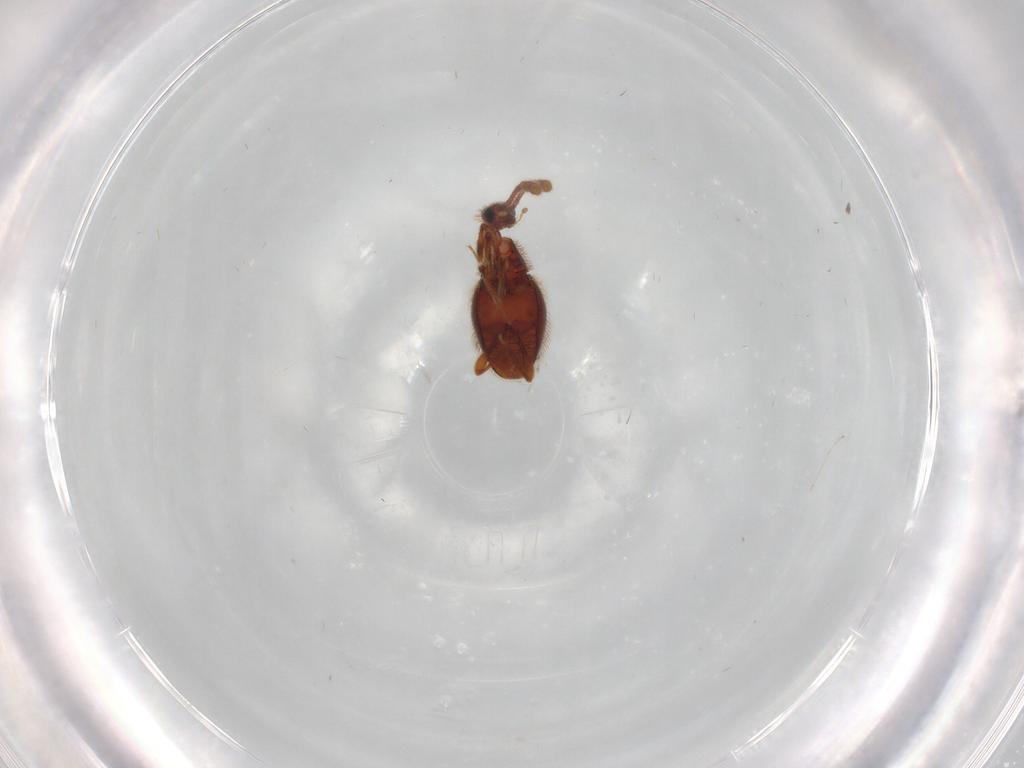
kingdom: Animalia
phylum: Arthropoda
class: Insecta
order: Coleoptera
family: Staphylinidae
